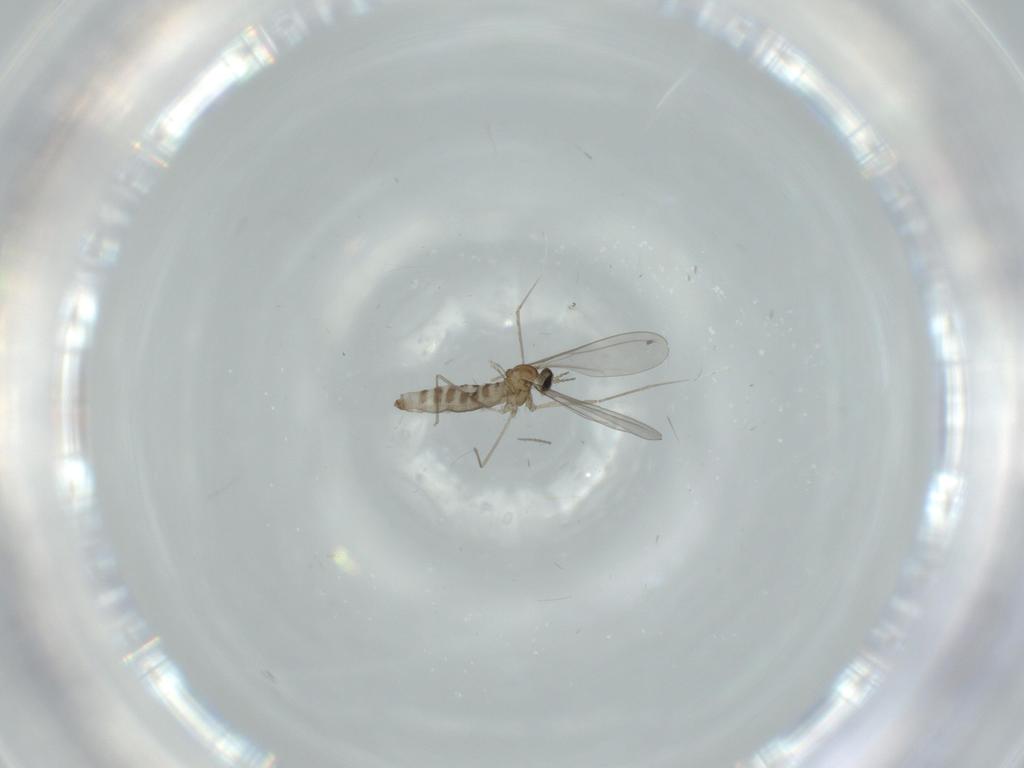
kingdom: Animalia
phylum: Arthropoda
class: Insecta
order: Diptera
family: Cecidomyiidae
